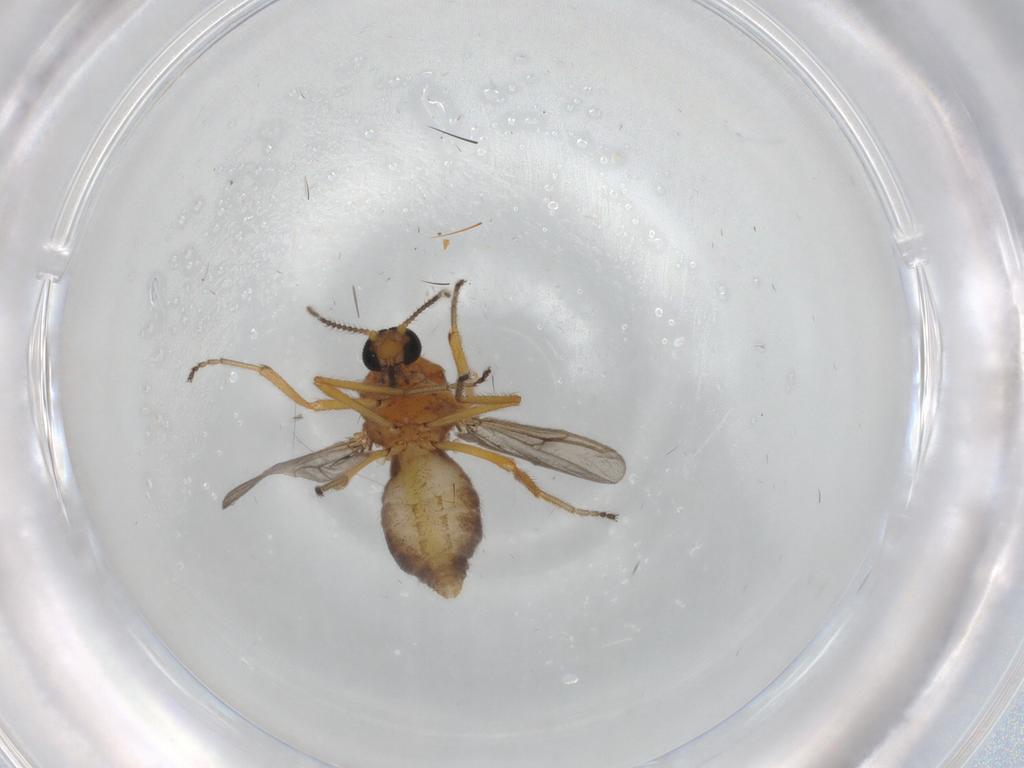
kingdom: Animalia
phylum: Arthropoda
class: Insecta
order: Diptera
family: Ceratopogonidae
